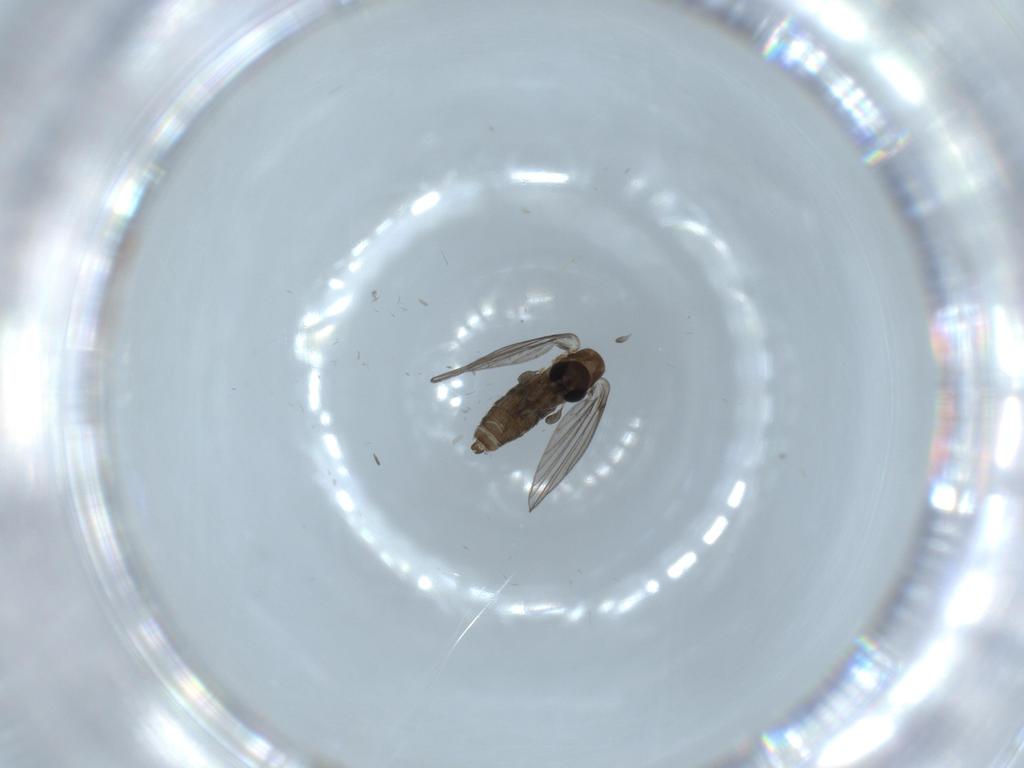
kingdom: Animalia
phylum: Arthropoda
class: Insecta
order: Diptera
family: Psychodidae
